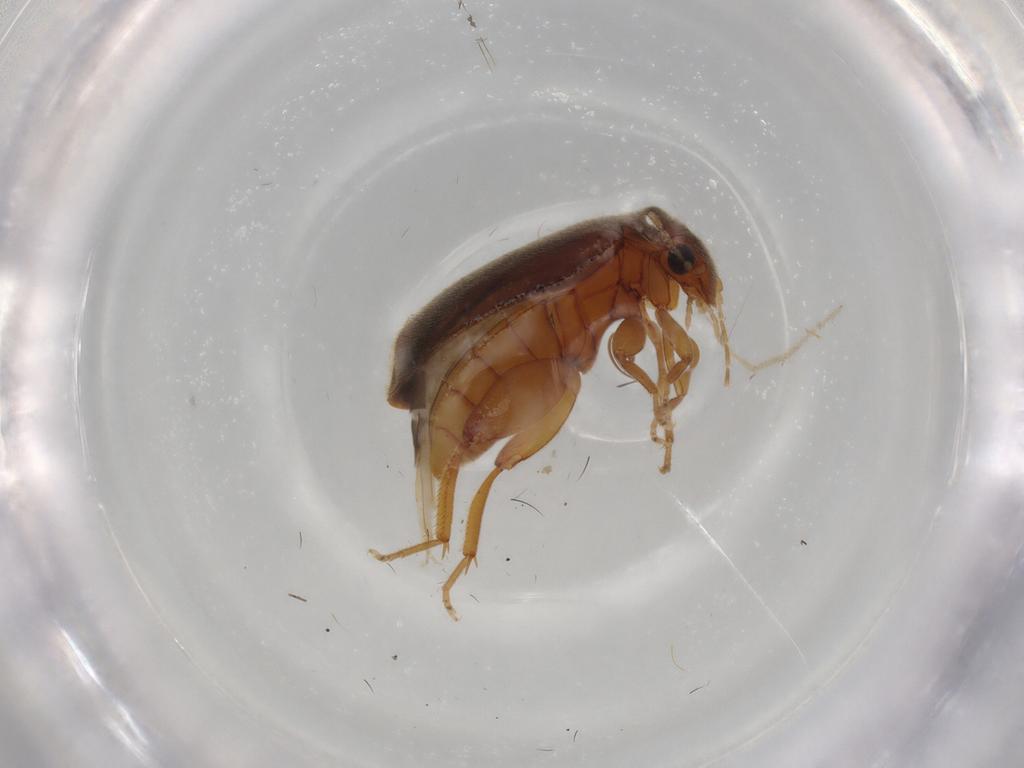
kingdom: Animalia
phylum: Arthropoda
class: Insecta
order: Coleoptera
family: Scirtidae
